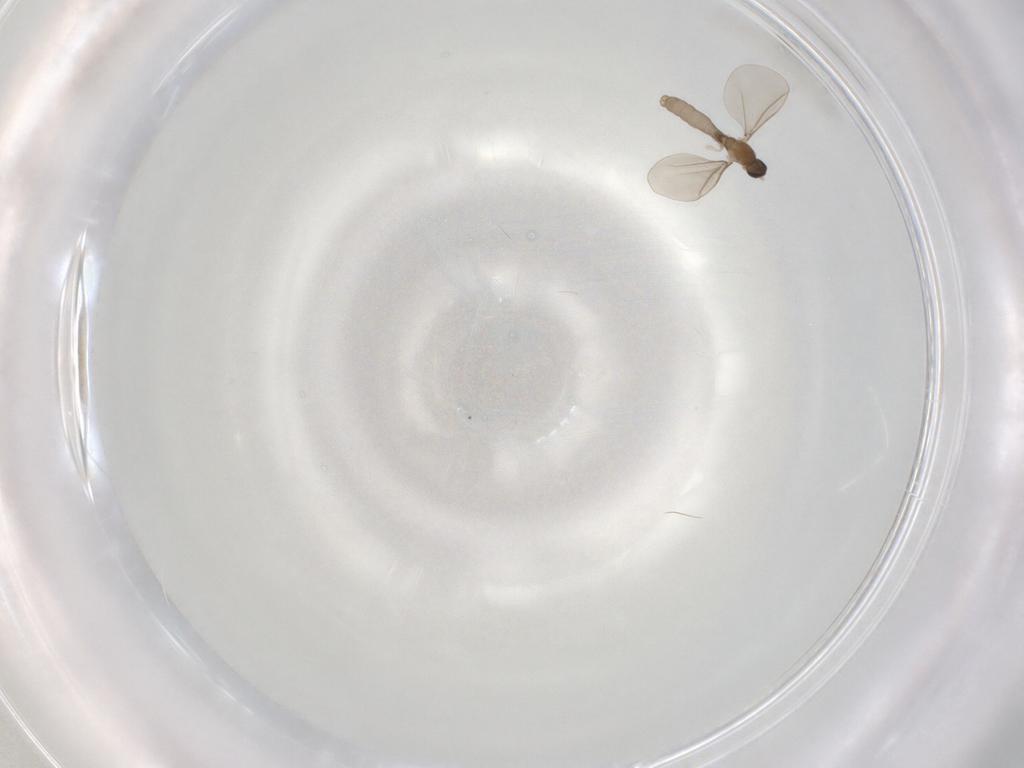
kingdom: Animalia
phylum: Arthropoda
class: Insecta
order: Diptera
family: Cecidomyiidae
